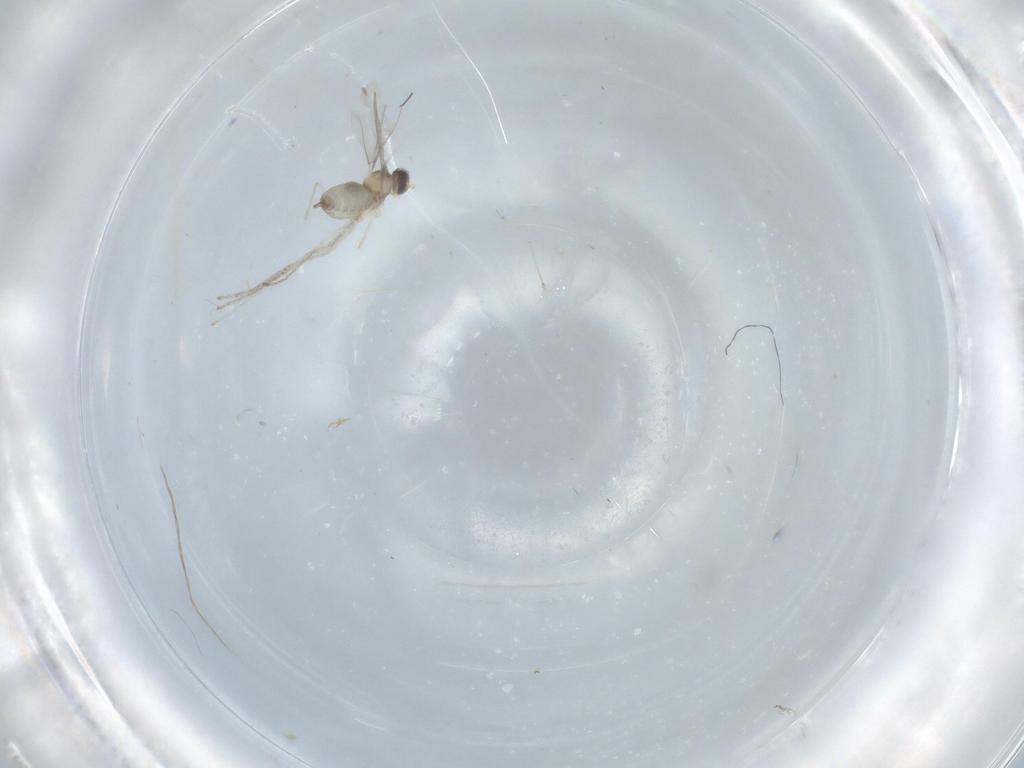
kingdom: Animalia
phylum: Arthropoda
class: Insecta
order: Diptera
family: Cecidomyiidae
